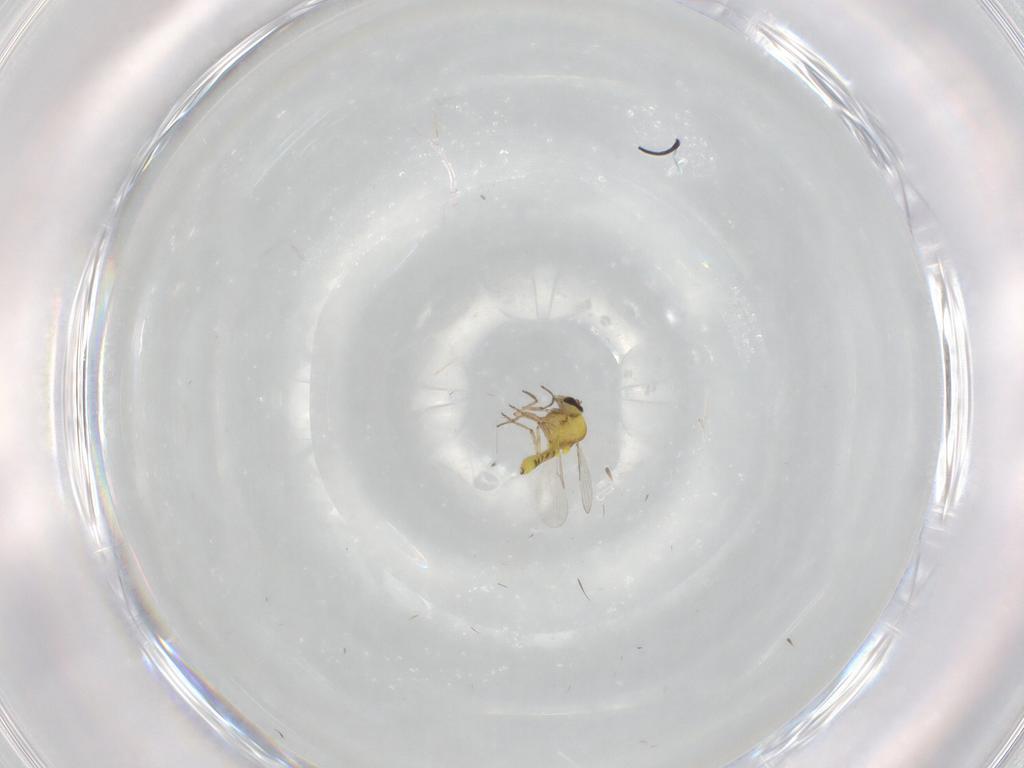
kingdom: Animalia
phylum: Arthropoda
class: Insecta
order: Diptera
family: Ceratopogonidae
